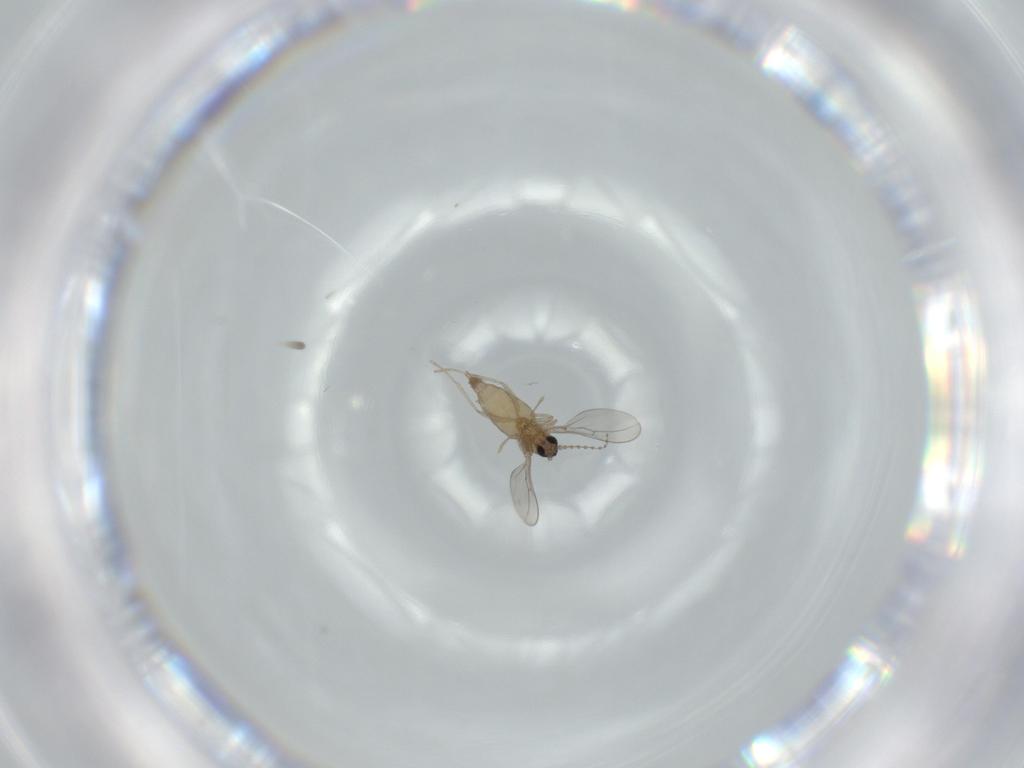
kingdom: Animalia
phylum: Arthropoda
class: Insecta
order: Diptera
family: Cecidomyiidae
